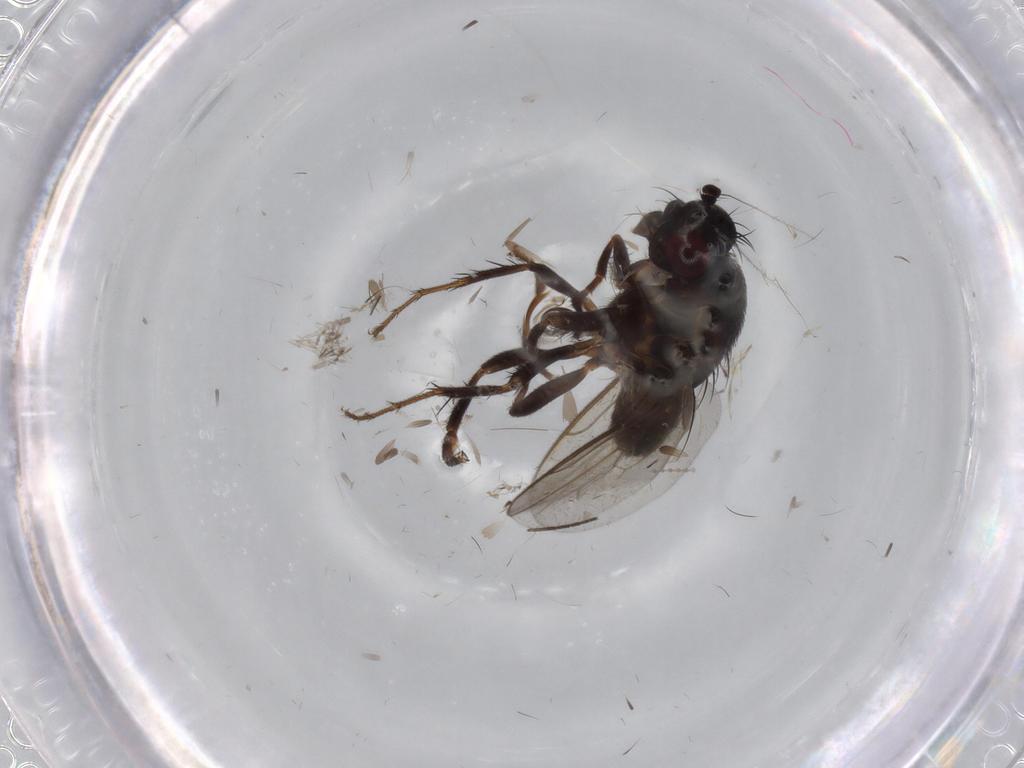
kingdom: Animalia
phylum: Arthropoda
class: Insecta
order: Diptera
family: Sphaeroceridae
